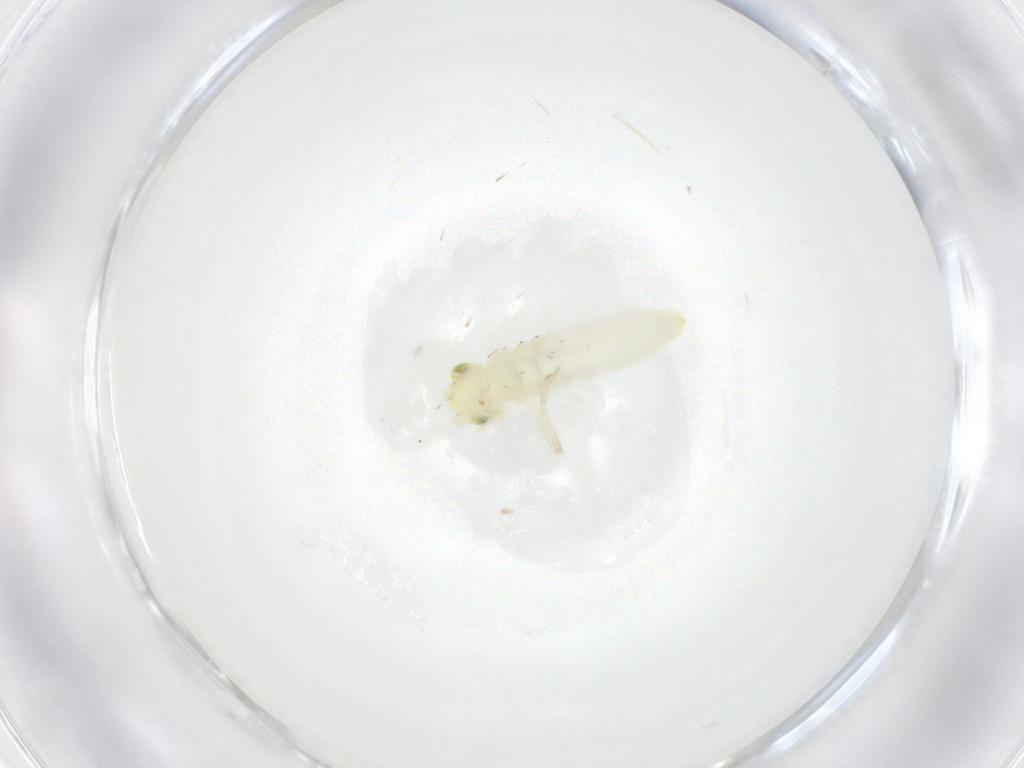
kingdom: Animalia
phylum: Arthropoda
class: Insecta
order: Orthoptera
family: Trigonidiidae
